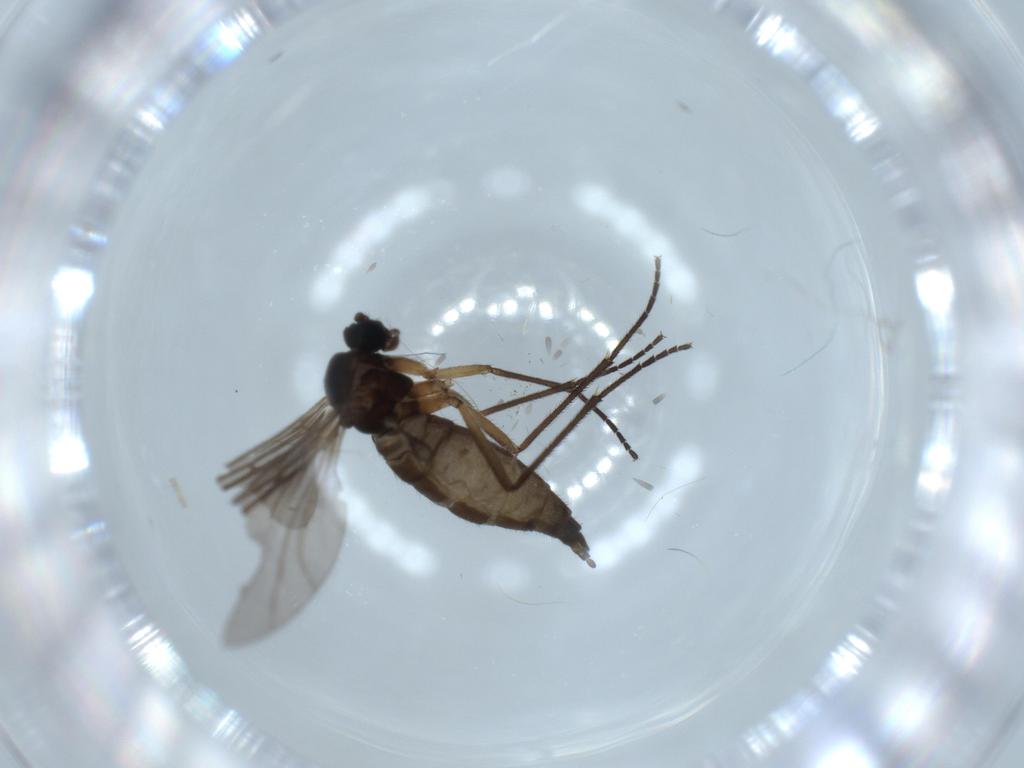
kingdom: Animalia
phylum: Arthropoda
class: Insecta
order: Diptera
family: Sciaridae
